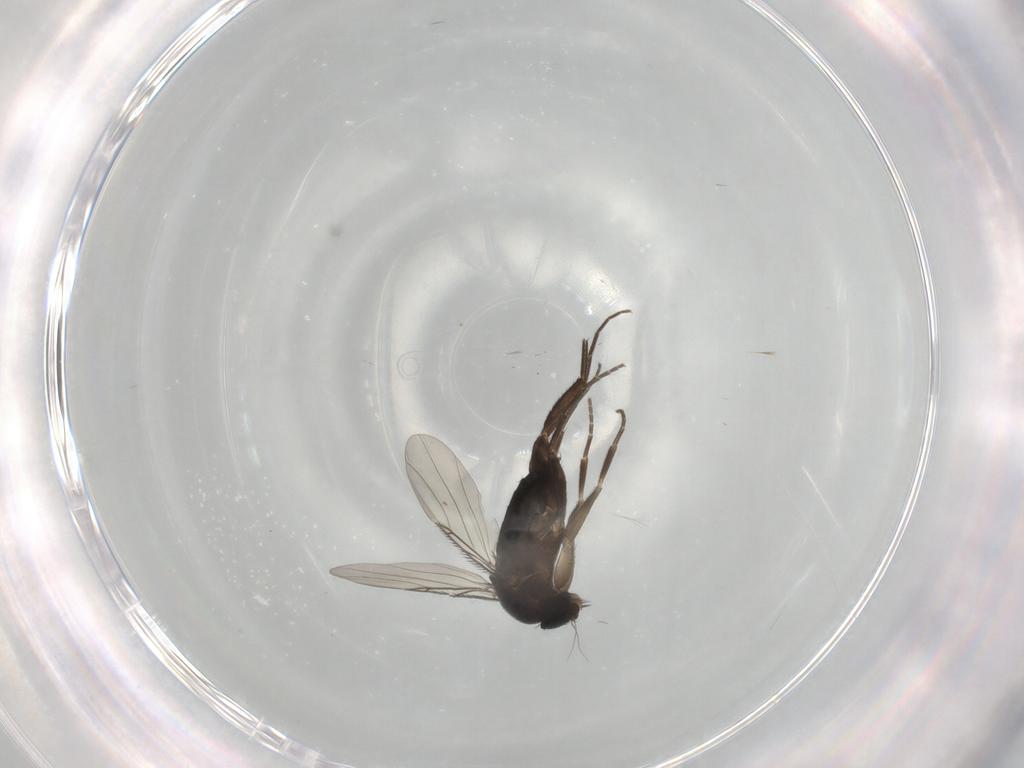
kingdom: Animalia
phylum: Arthropoda
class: Insecta
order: Diptera
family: Phoridae
